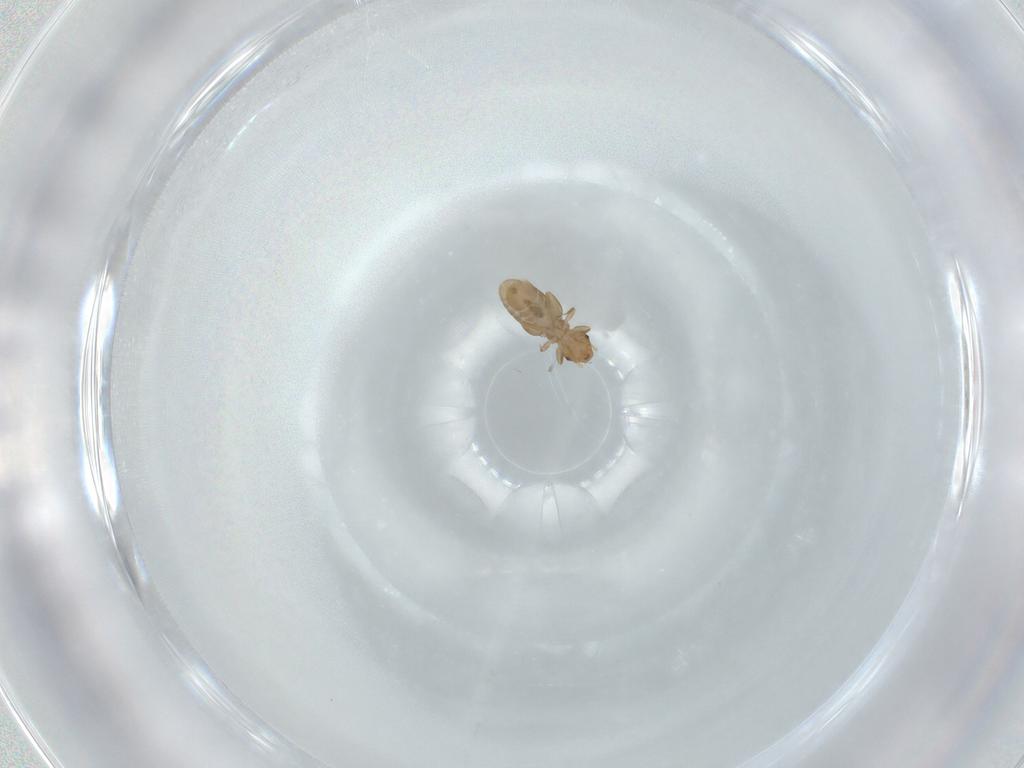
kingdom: Animalia
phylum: Arthropoda
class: Insecta
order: Psocodea
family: Liposcelididae
